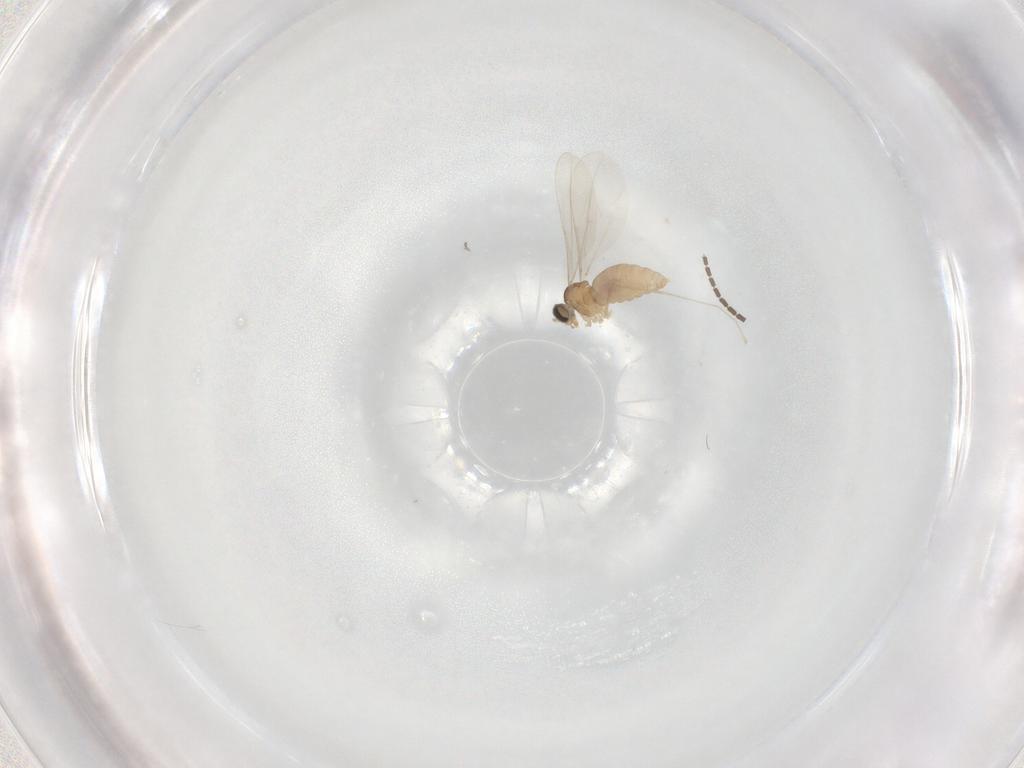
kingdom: Animalia
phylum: Arthropoda
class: Insecta
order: Diptera
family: Cecidomyiidae
